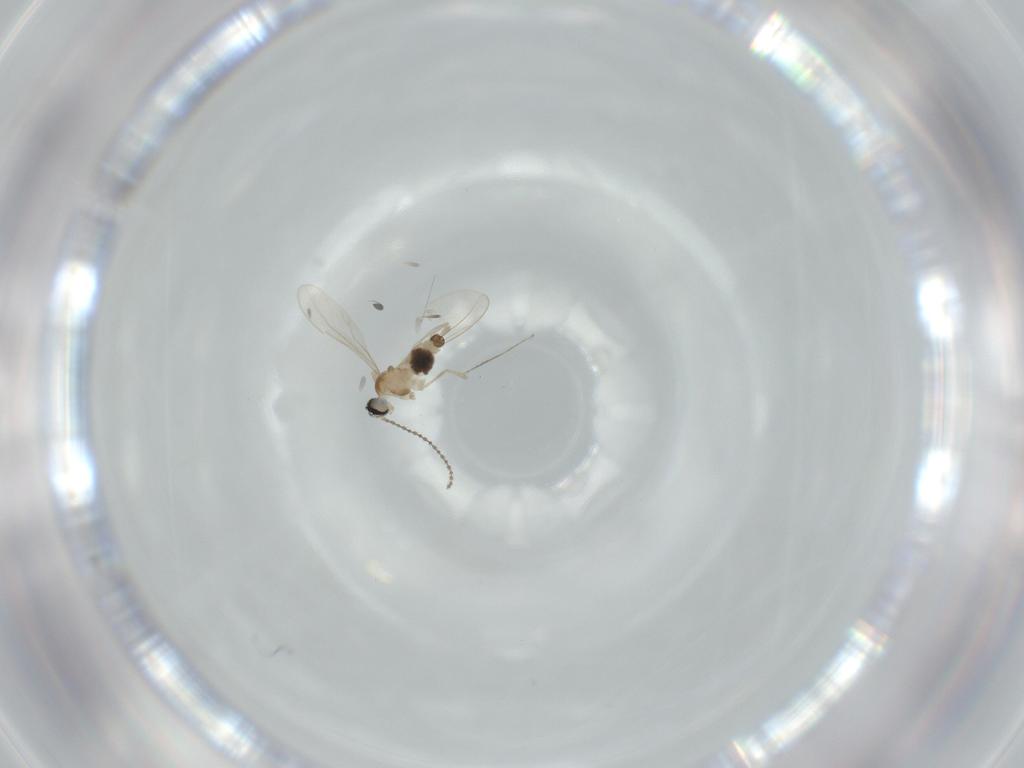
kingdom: Animalia
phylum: Arthropoda
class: Insecta
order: Diptera
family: Cecidomyiidae
